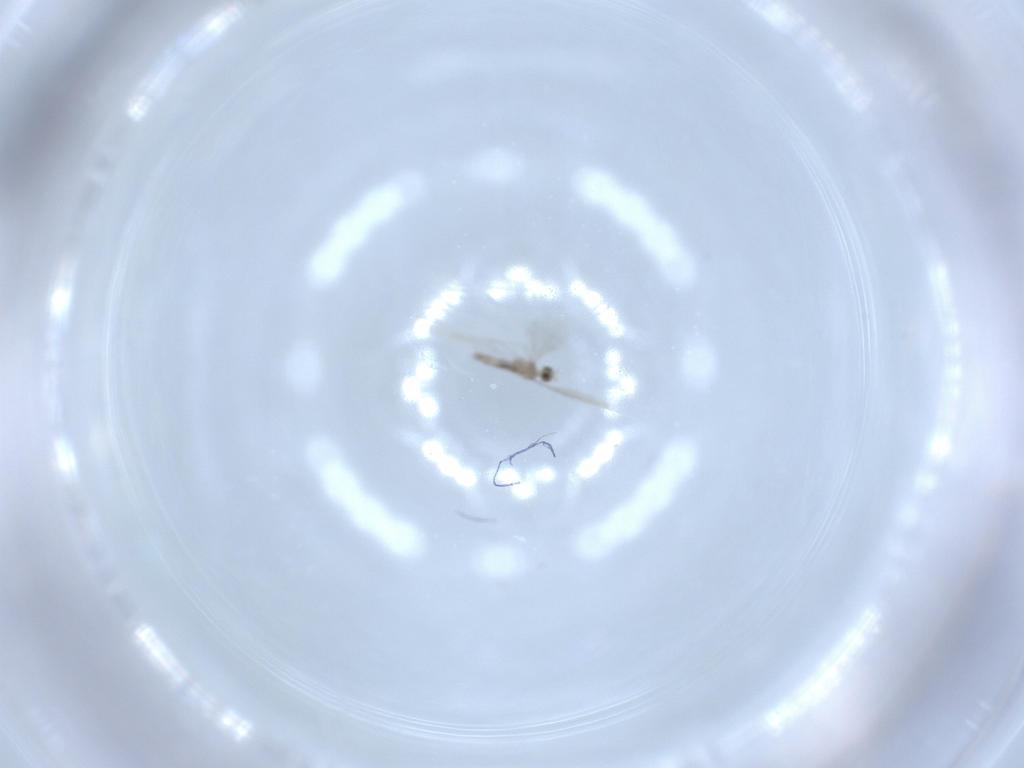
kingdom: Animalia
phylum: Arthropoda
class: Insecta
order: Diptera
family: Cecidomyiidae
